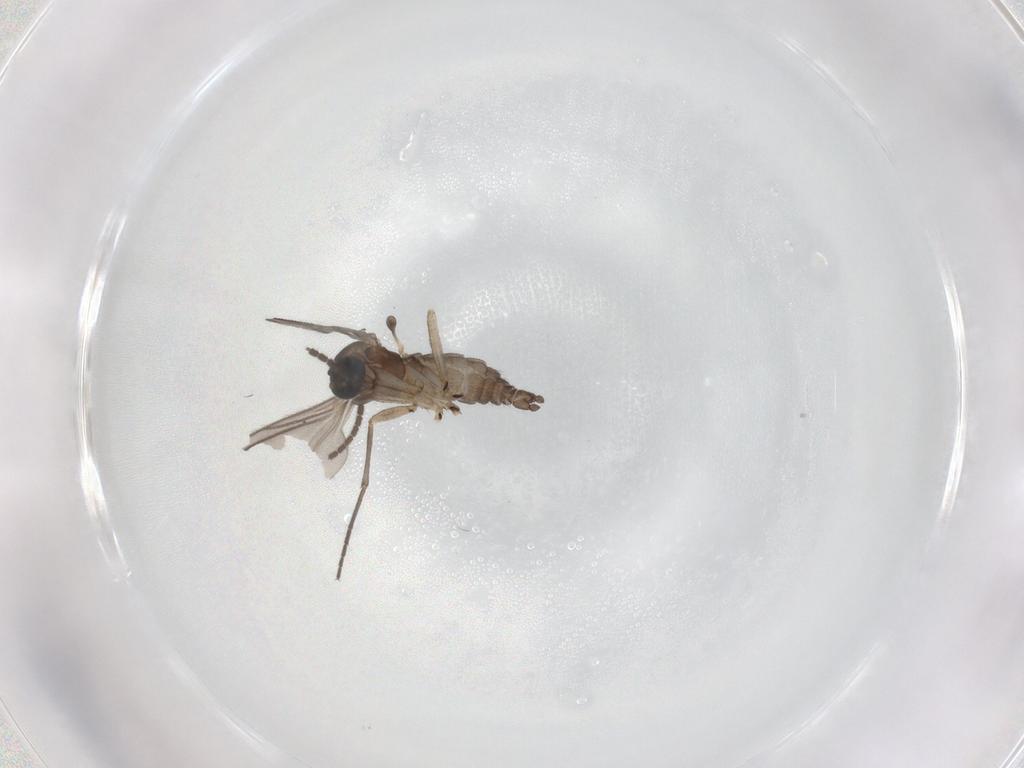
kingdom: Animalia
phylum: Arthropoda
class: Insecta
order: Diptera
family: Sciaridae
